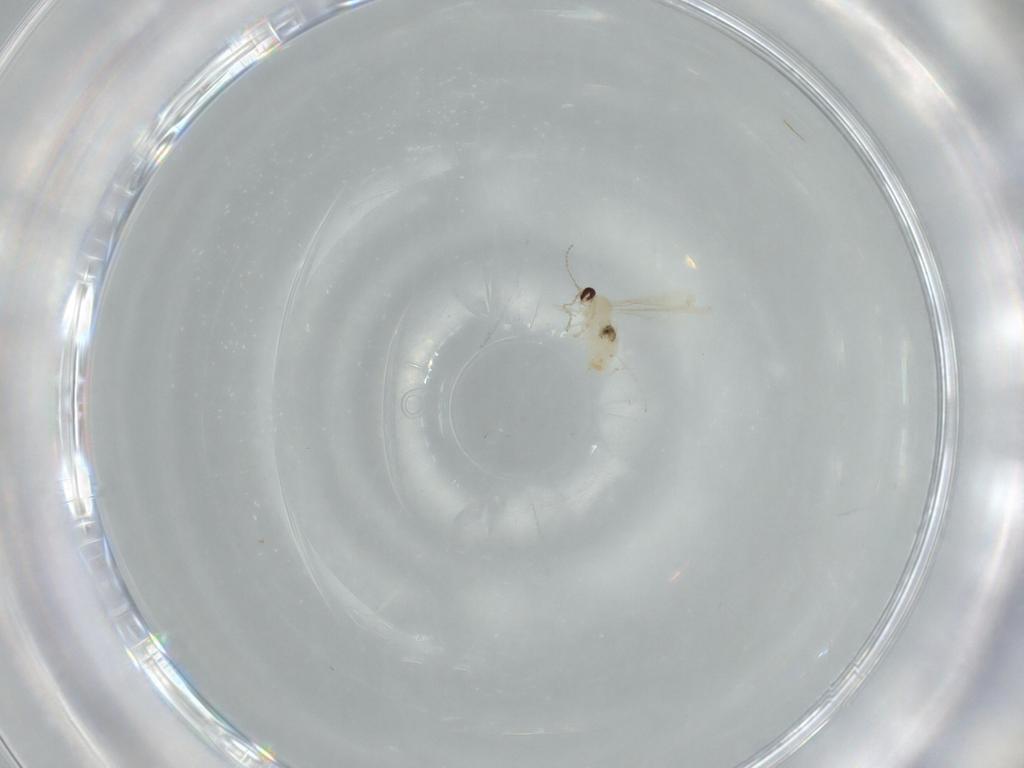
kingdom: Animalia
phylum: Arthropoda
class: Insecta
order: Diptera
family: Cecidomyiidae
